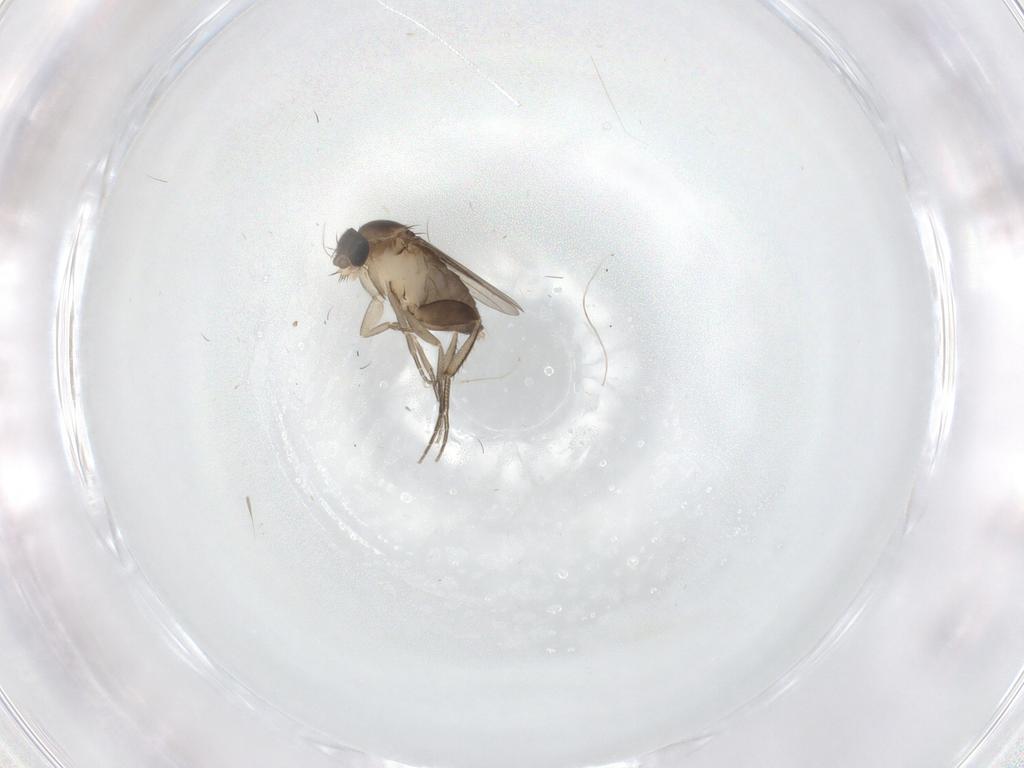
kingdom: Animalia
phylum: Arthropoda
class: Insecta
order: Diptera
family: Phoridae
